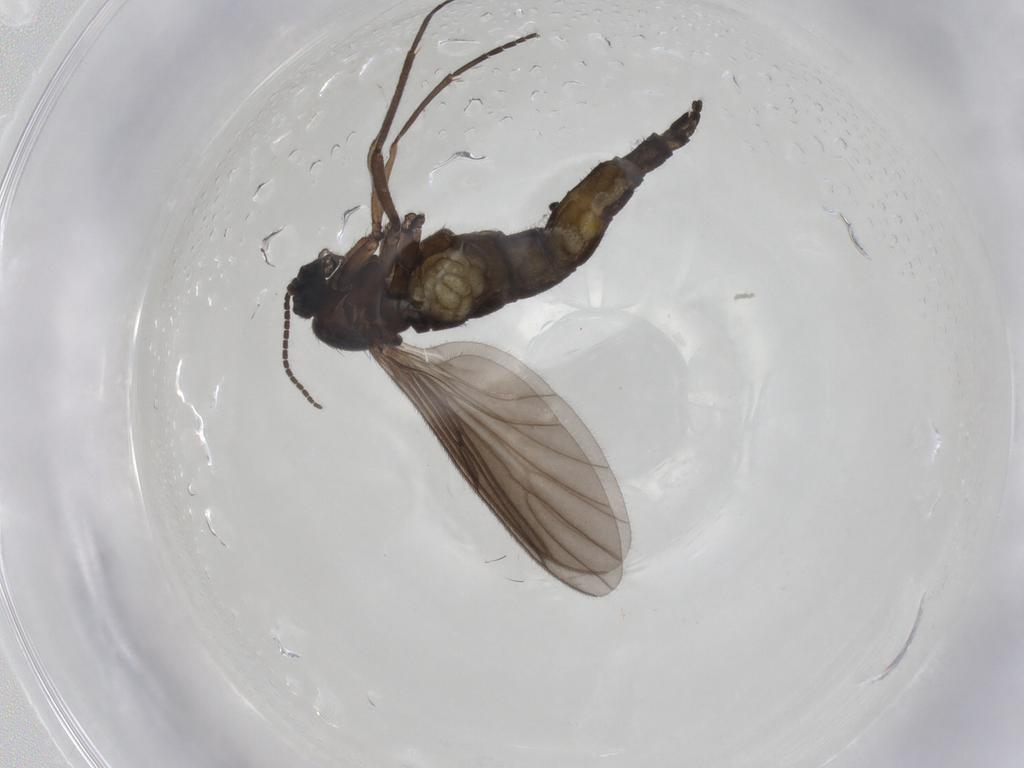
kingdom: Animalia
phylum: Arthropoda
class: Insecta
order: Diptera
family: Sciaridae
